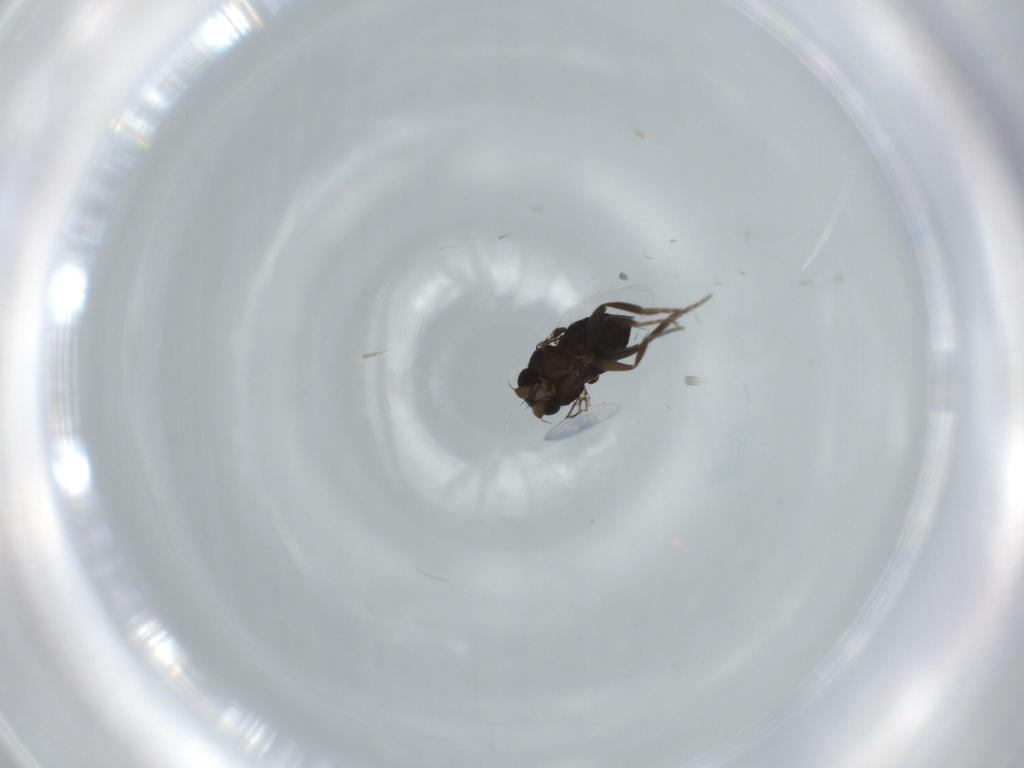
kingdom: Animalia
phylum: Arthropoda
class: Insecta
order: Diptera
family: Phoridae
